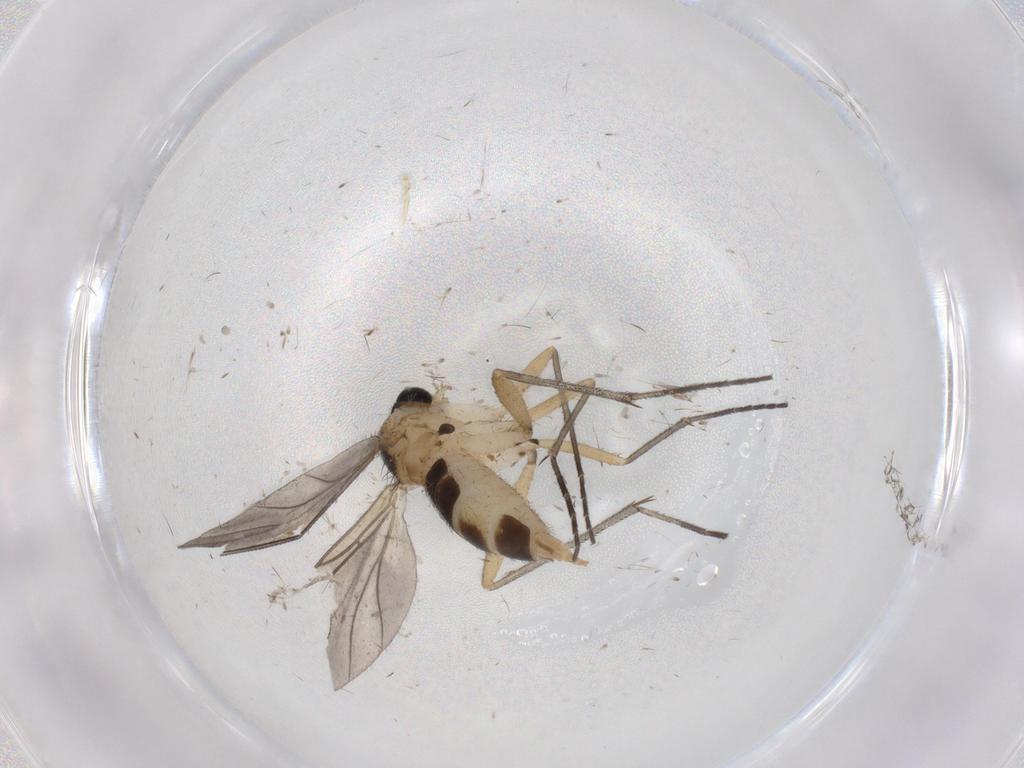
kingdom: Animalia
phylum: Arthropoda
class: Insecta
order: Diptera
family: Sciaridae
